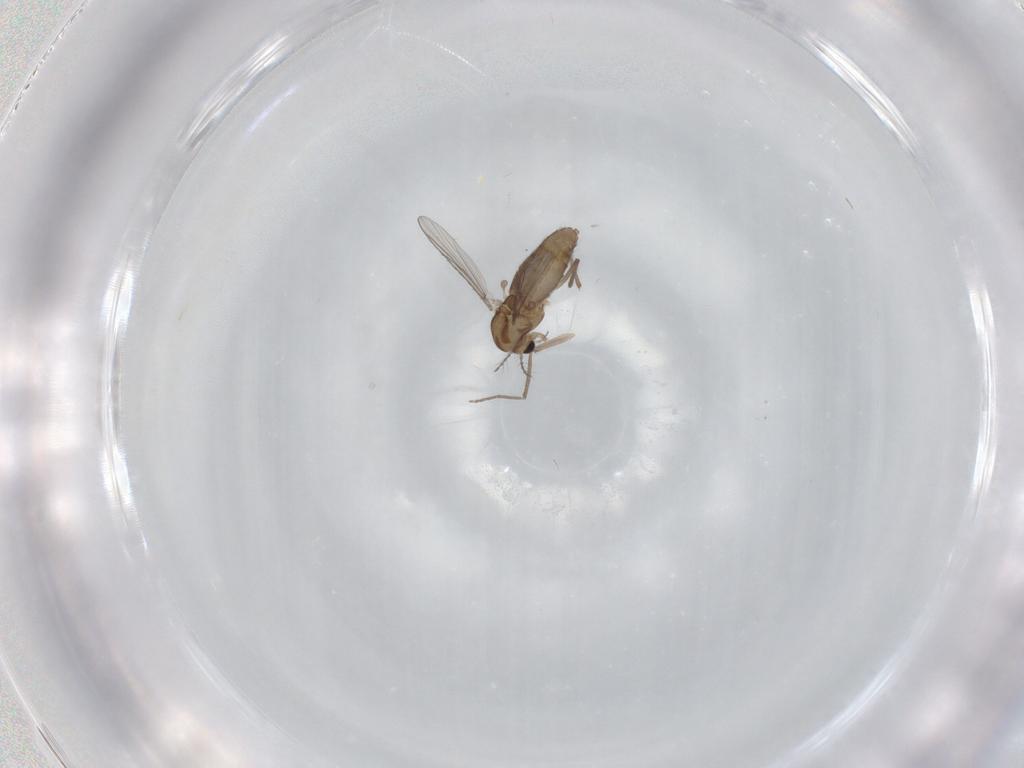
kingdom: Animalia
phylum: Arthropoda
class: Insecta
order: Diptera
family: Chironomidae
